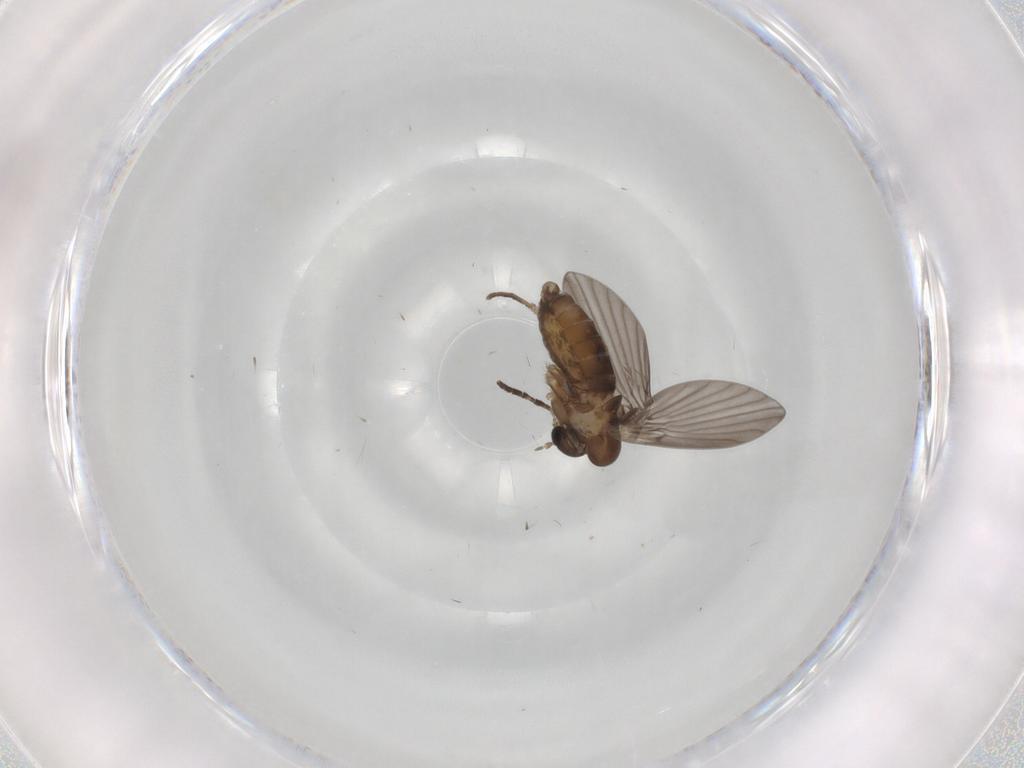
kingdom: Animalia
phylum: Arthropoda
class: Insecta
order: Diptera
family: Psychodidae
